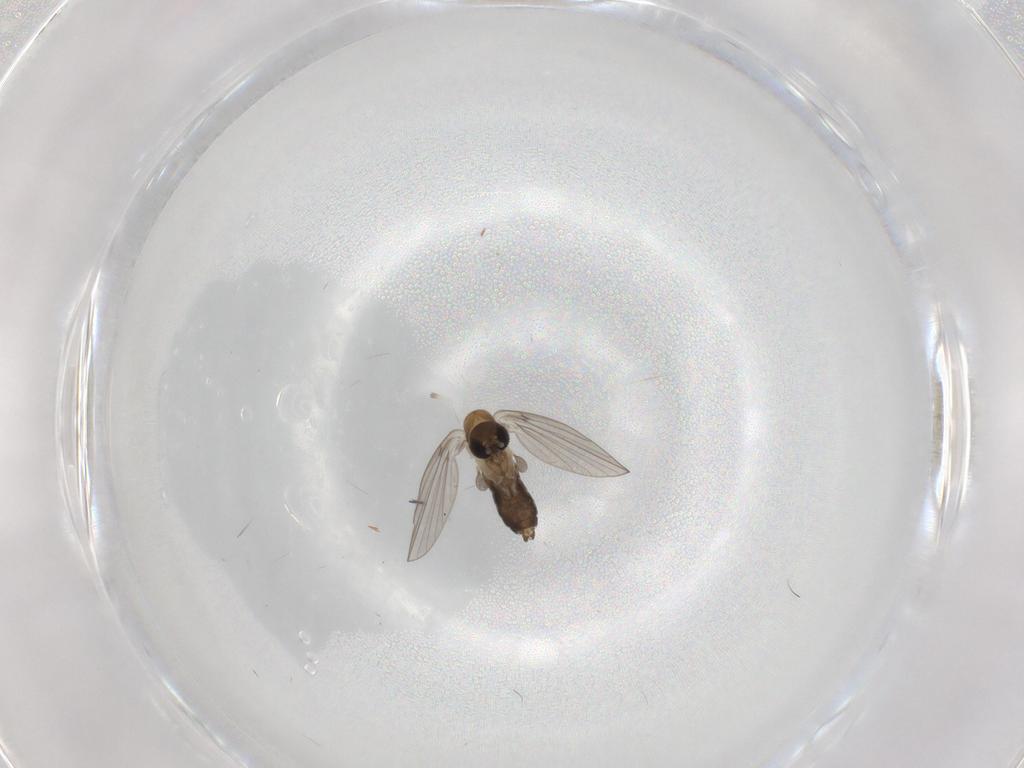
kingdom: Animalia
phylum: Arthropoda
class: Insecta
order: Diptera
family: Psychodidae
